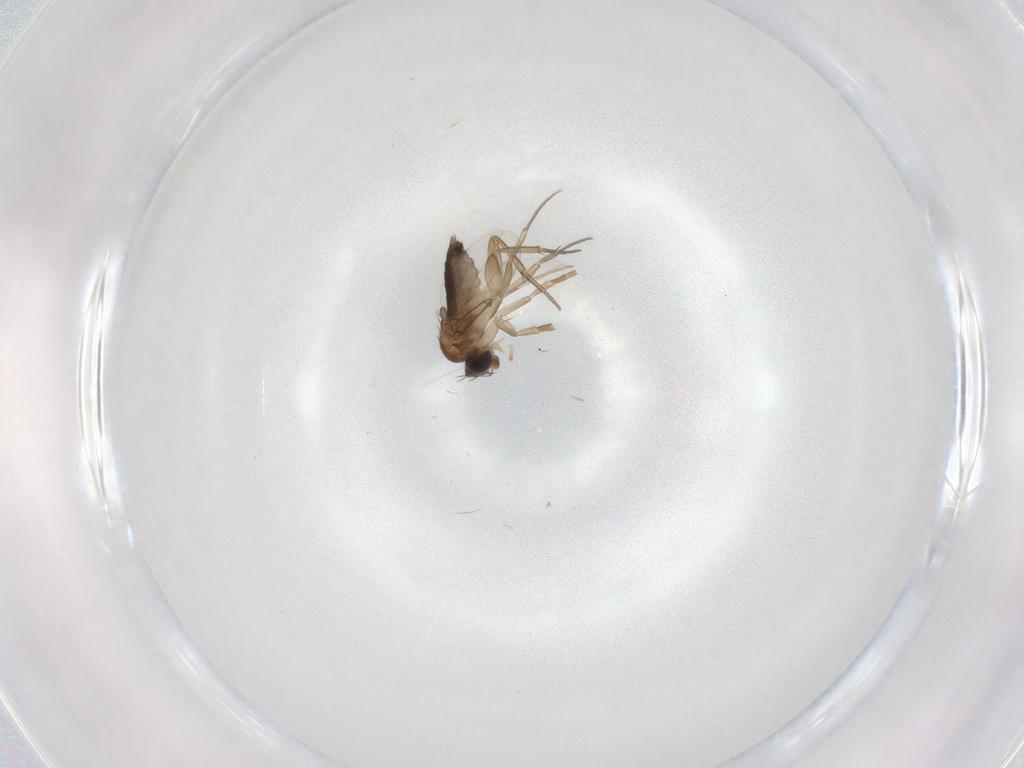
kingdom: Animalia
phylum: Arthropoda
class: Insecta
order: Diptera
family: Phoridae
